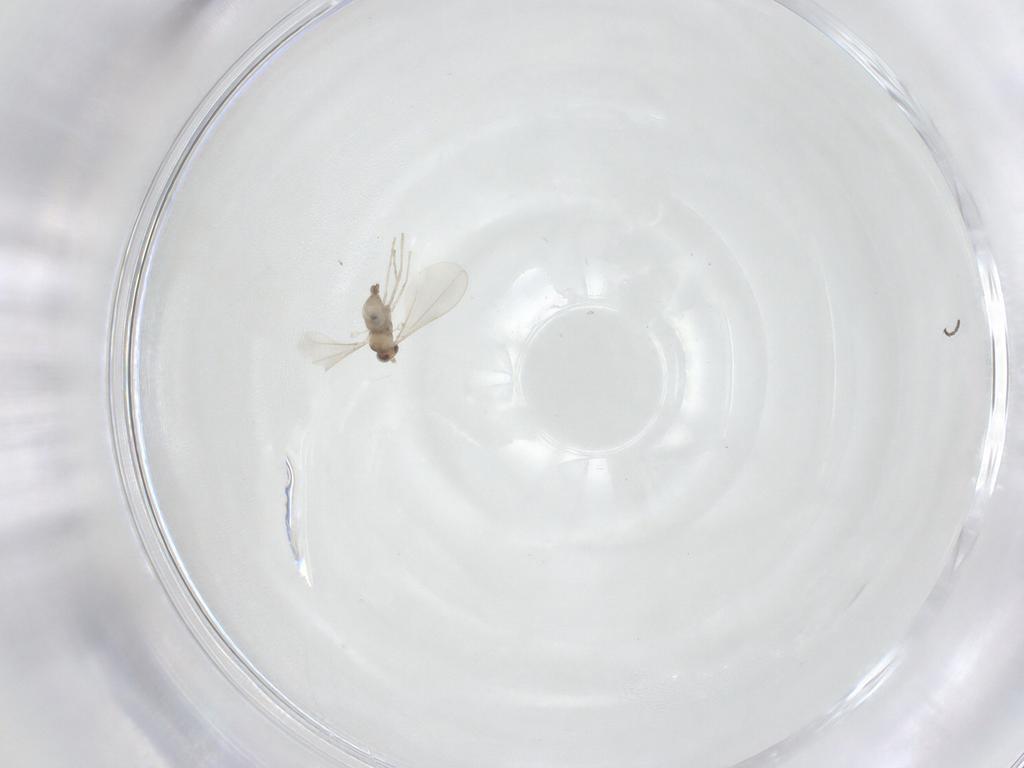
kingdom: Animalia
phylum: Arthropoda
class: Insecta
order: Diptera
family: Cecidomyiidae
